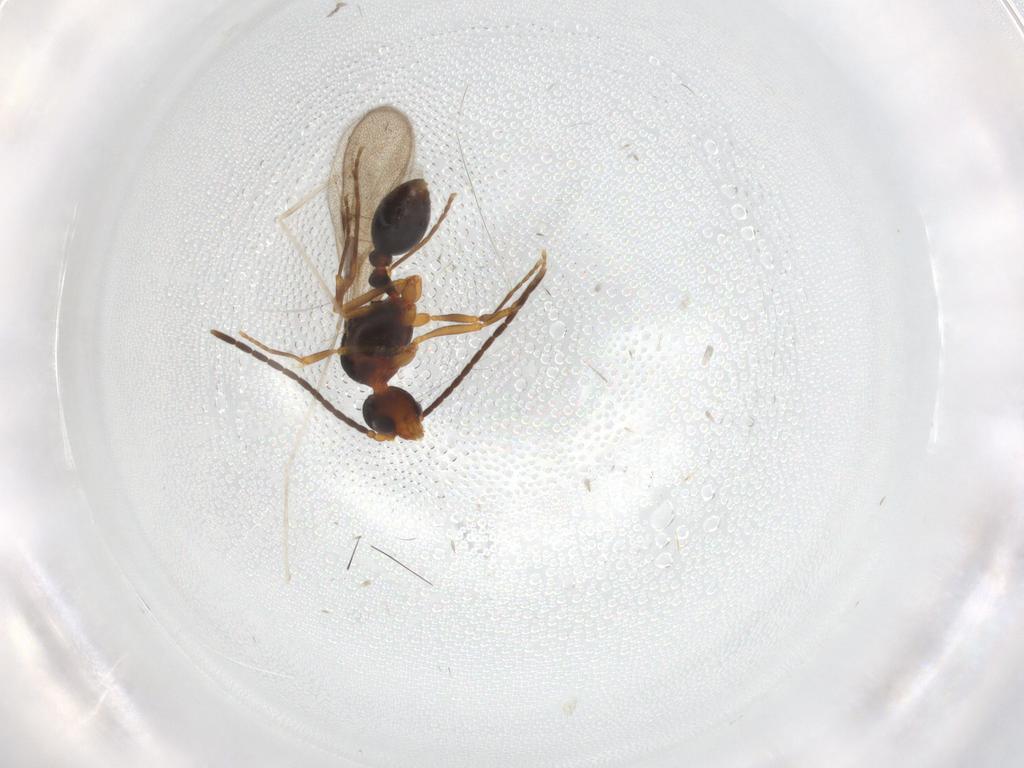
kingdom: Animalia
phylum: Arthropoda
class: Insecta
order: Hymenoptera
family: Formicidae
